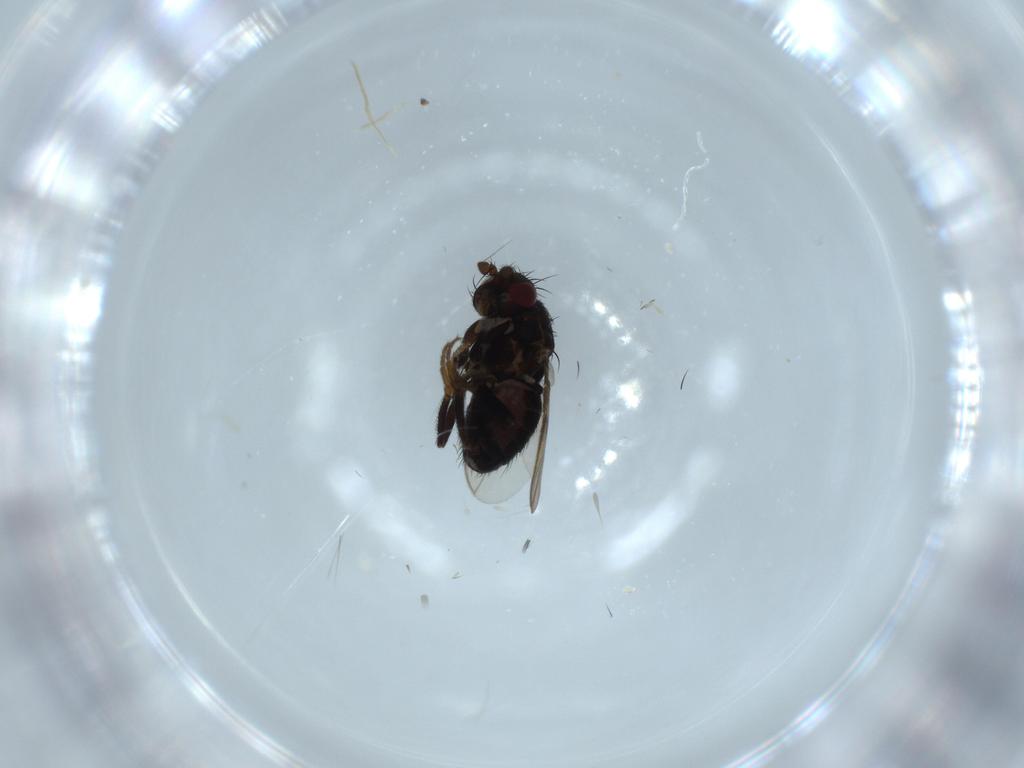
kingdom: Animalia
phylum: Arthropoda
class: Insecta
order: Diptera
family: Sphaeroceridae
